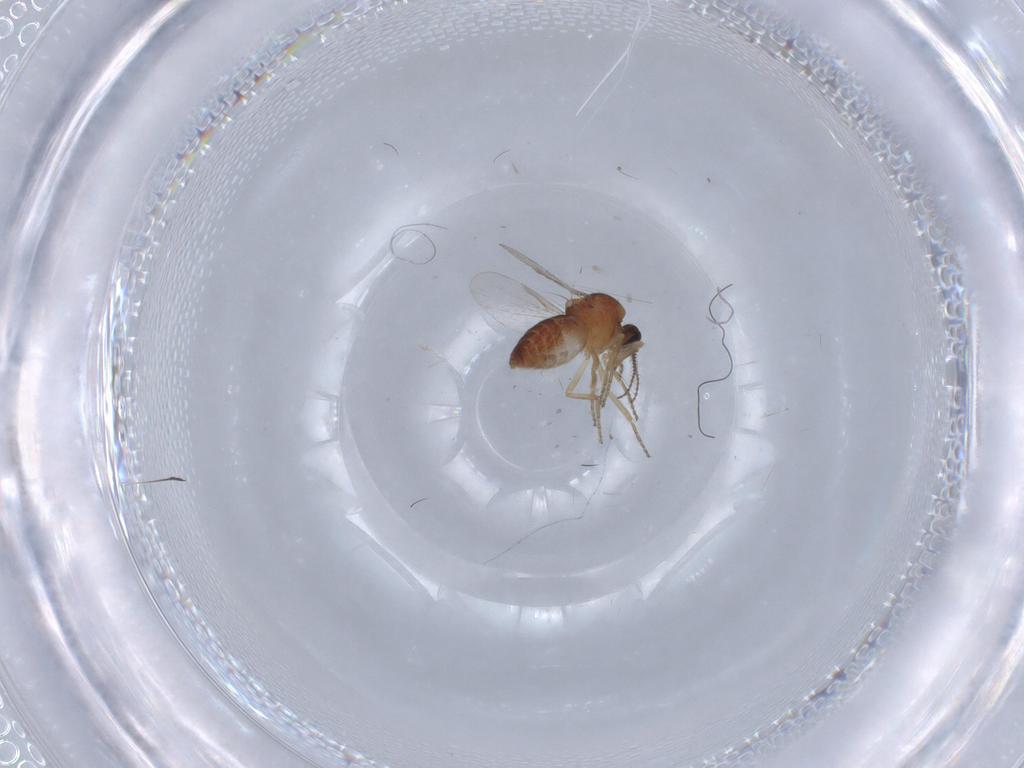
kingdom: Animalia
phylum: Arthropoda
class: Insecta
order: Diptera
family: Ceratopogonidae
